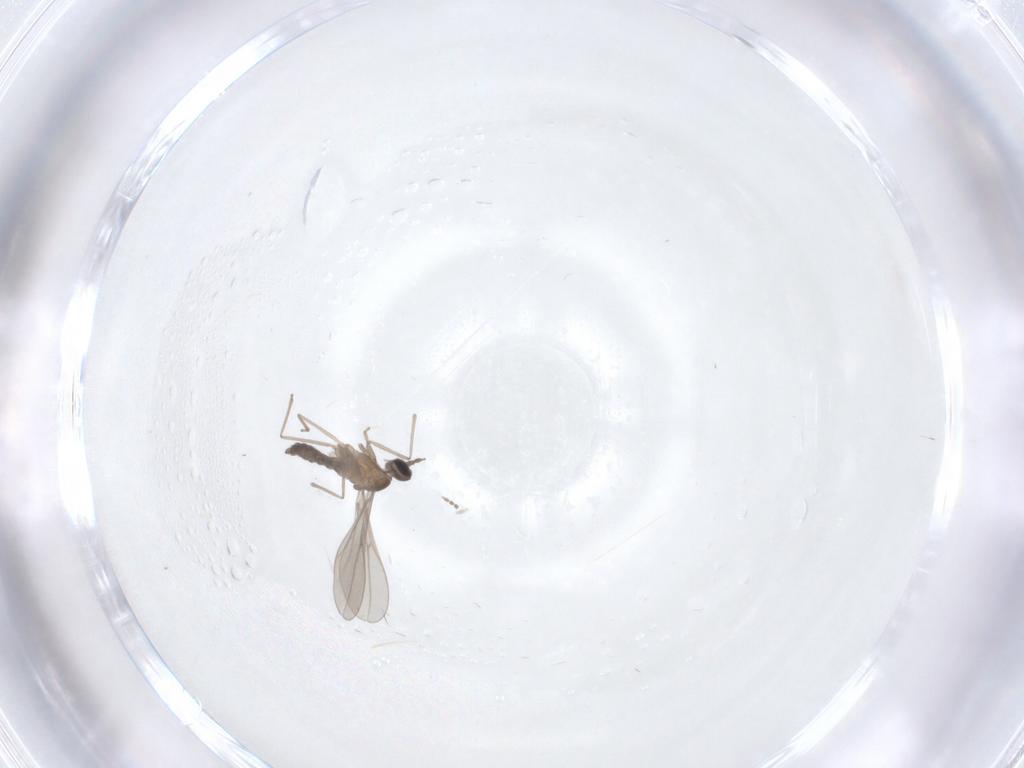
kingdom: Animalia
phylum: Arthropoda
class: Insecta
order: Diptera
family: Cecidomyiidae
